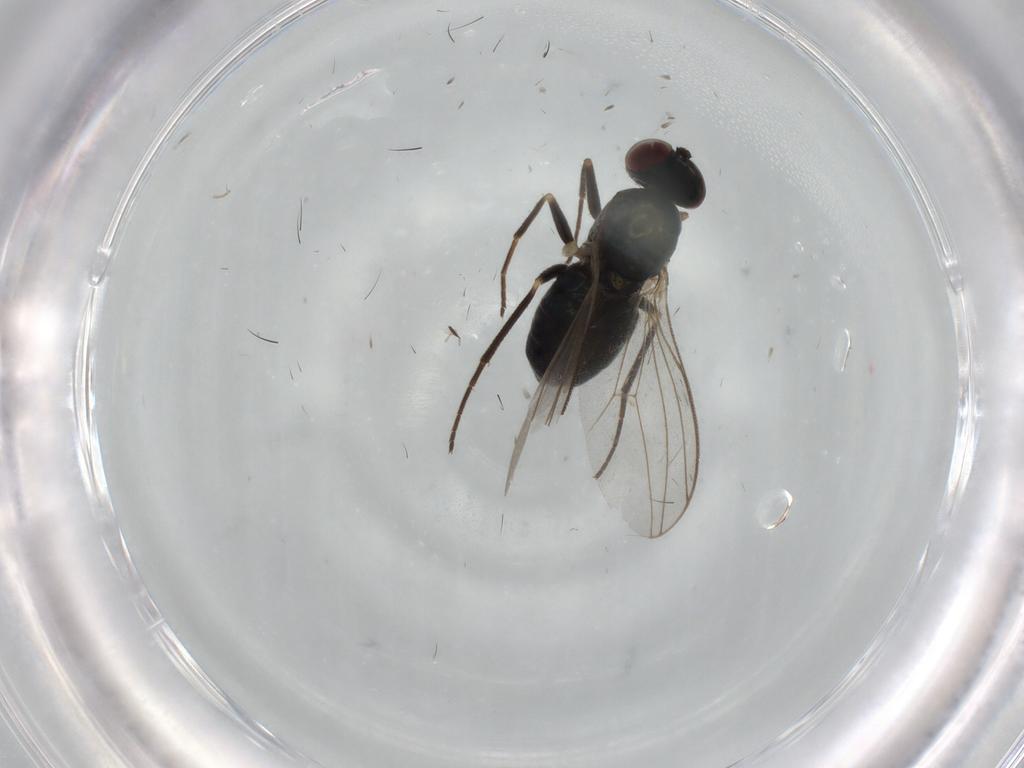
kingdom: Animalia
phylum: Arthropoda
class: Insecta
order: Diptera
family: Dolichopodidae
